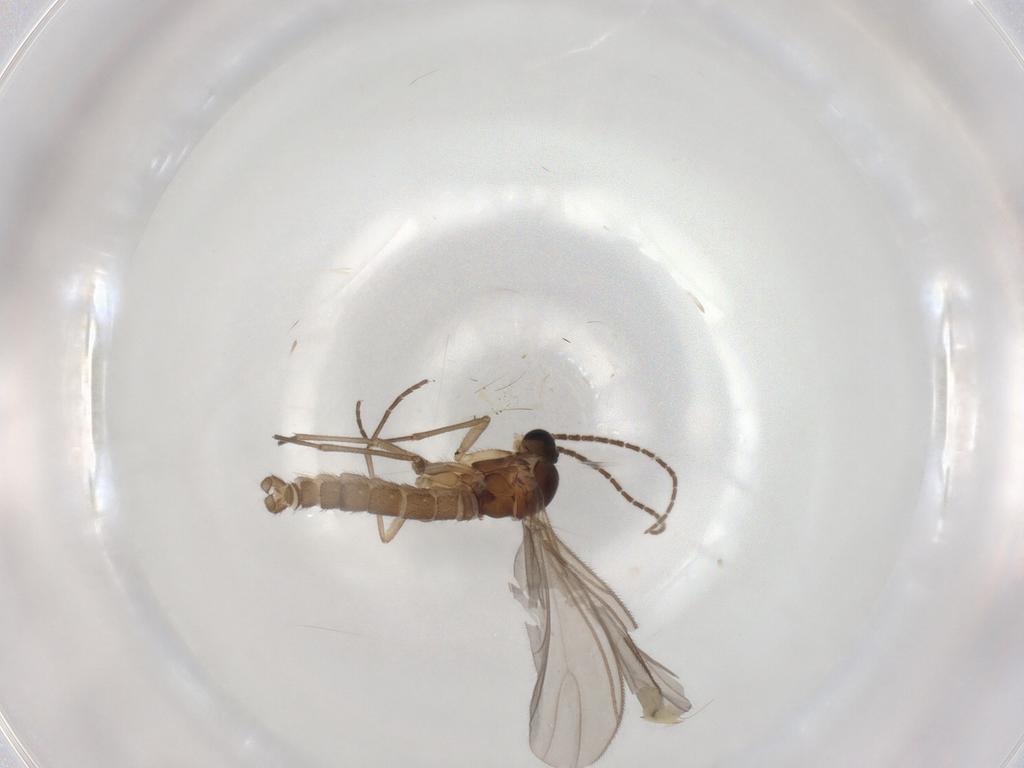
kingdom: Animalia
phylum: Arthropoda
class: Insecta
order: Diptera
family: Sciaridae
